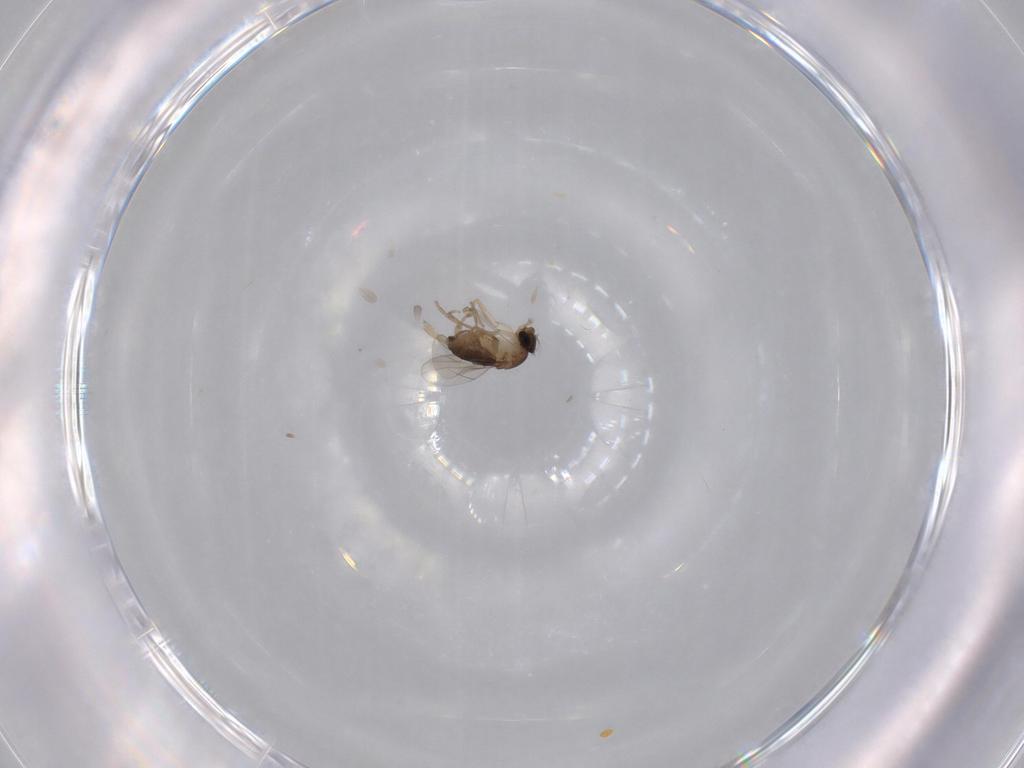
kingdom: Animalia
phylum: Arthropoda
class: Insecta
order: Diptera
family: Phoridae
